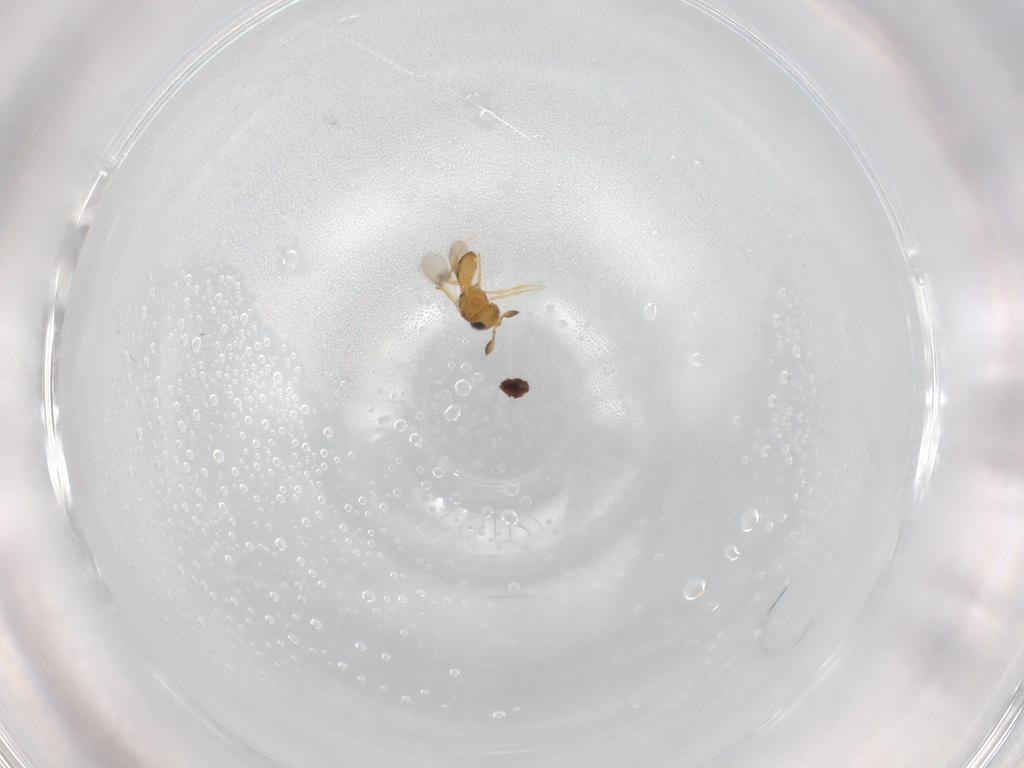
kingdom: Animalia
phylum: Arthropoda
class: Insecta
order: Hymenoptera
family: Scelionidae
